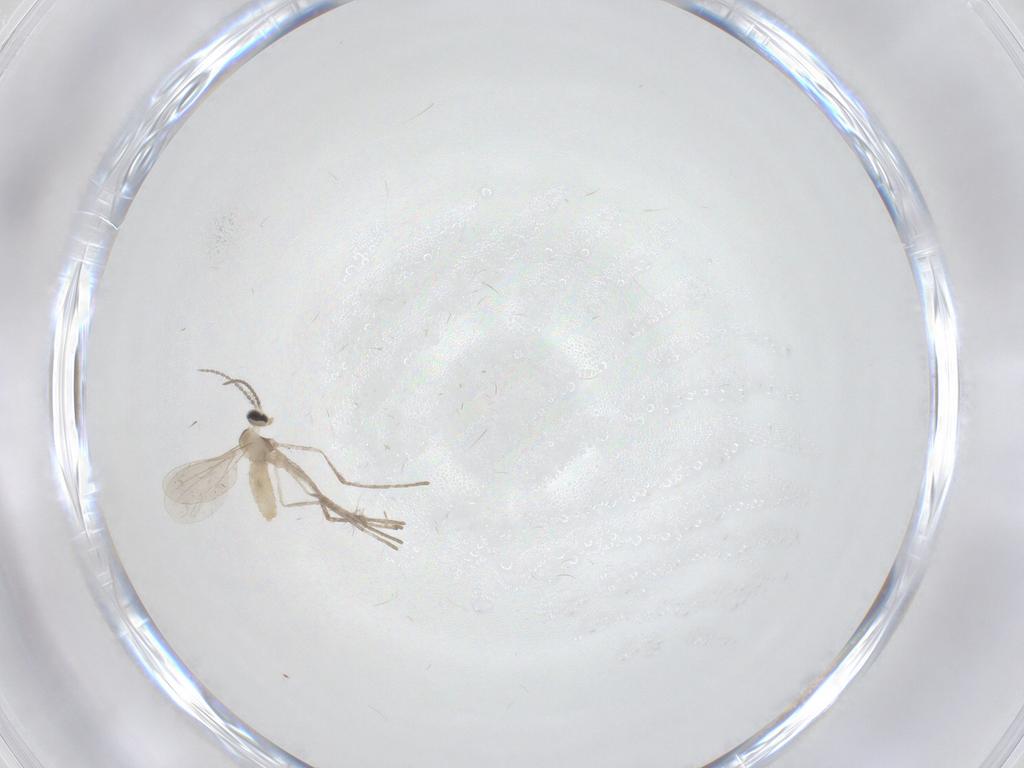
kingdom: Animalia
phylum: Arthropoda
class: Insecta
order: Diptera
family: Cecidomyiidae
